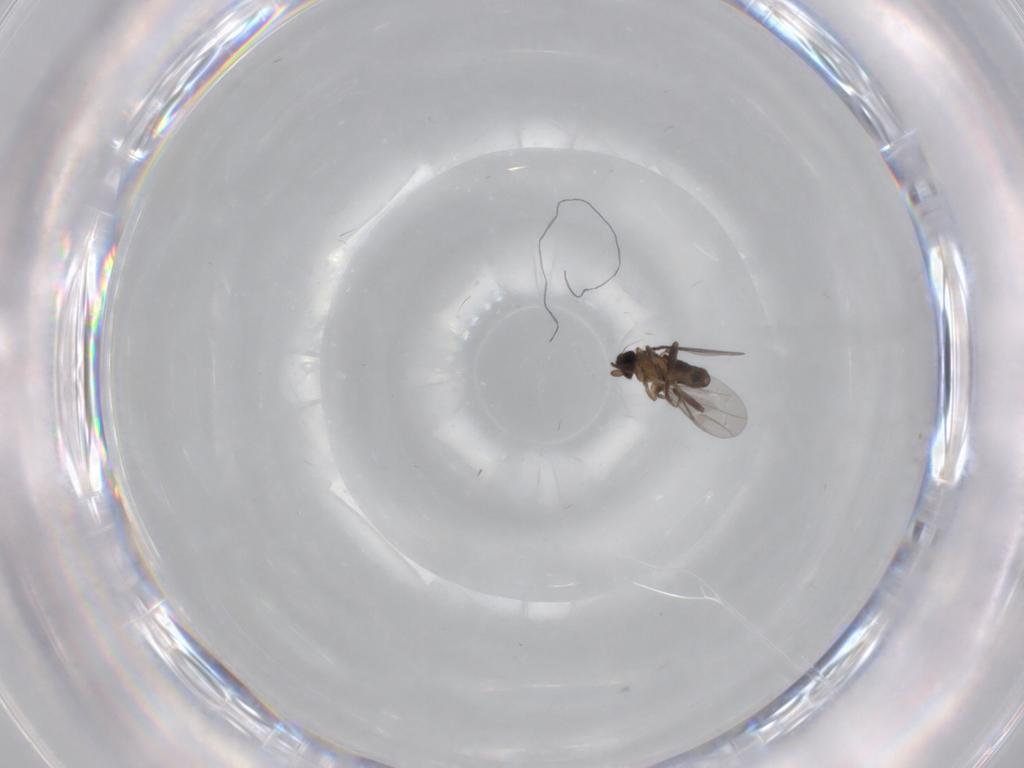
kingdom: Animalia
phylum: Arthropoda
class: Insecta
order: Diptera
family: Phoridae
